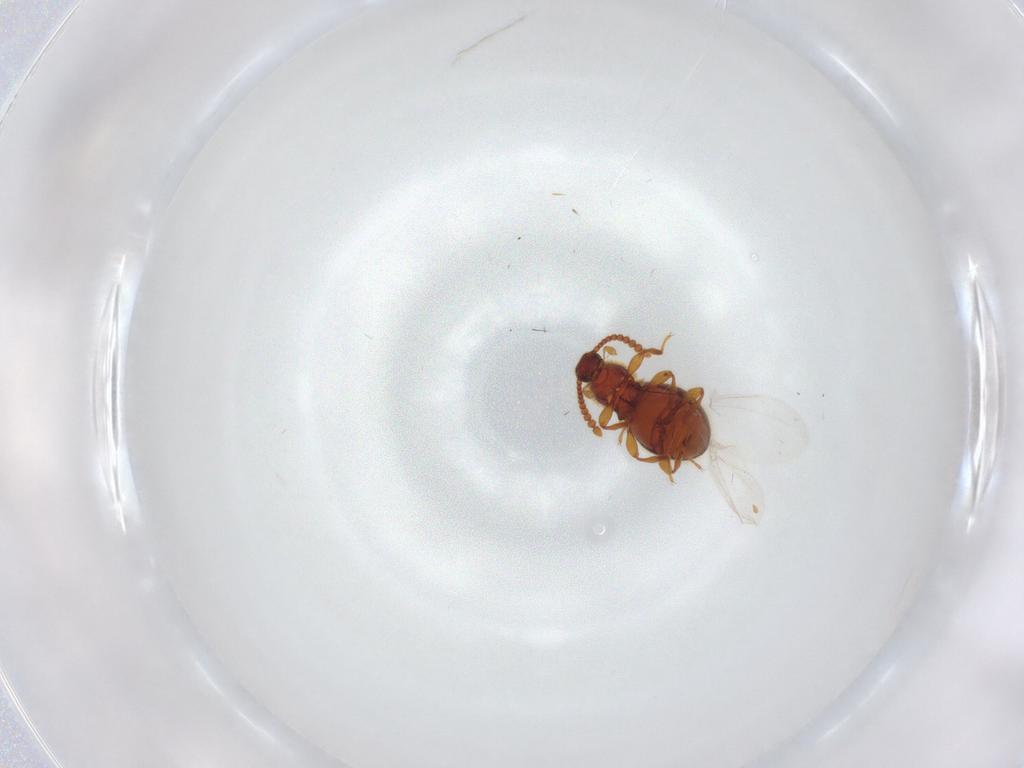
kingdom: Animalia
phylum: Arthropoda
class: Insecta
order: Coleoptera
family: Staphylinidae
